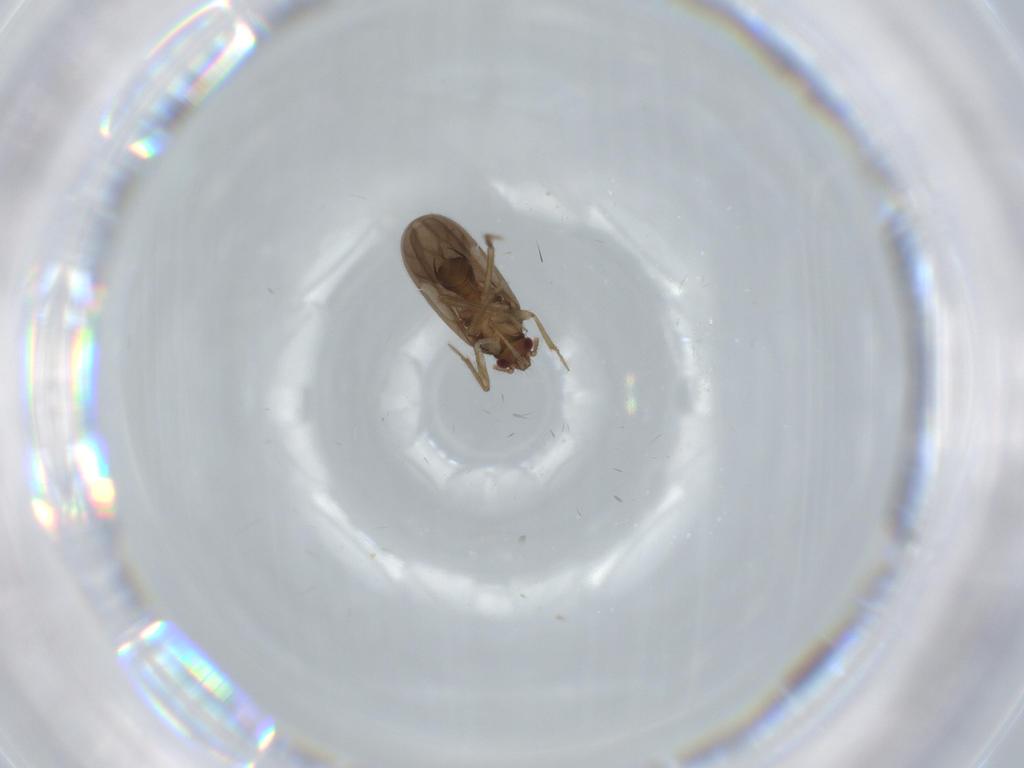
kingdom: Animalia
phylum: Arthropoda
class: Insecta
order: Hemiptera
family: Ceratocombidae
